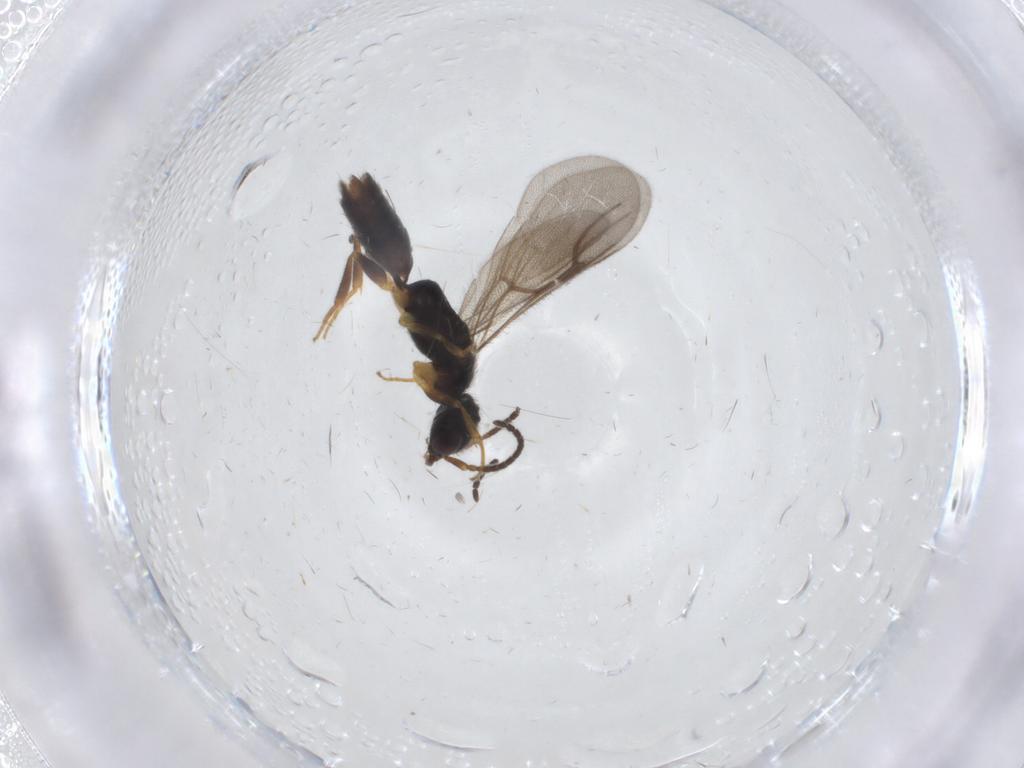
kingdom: Animalia
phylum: Arthropoda
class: Insecta
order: Hymenoptera
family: Bethylidae
